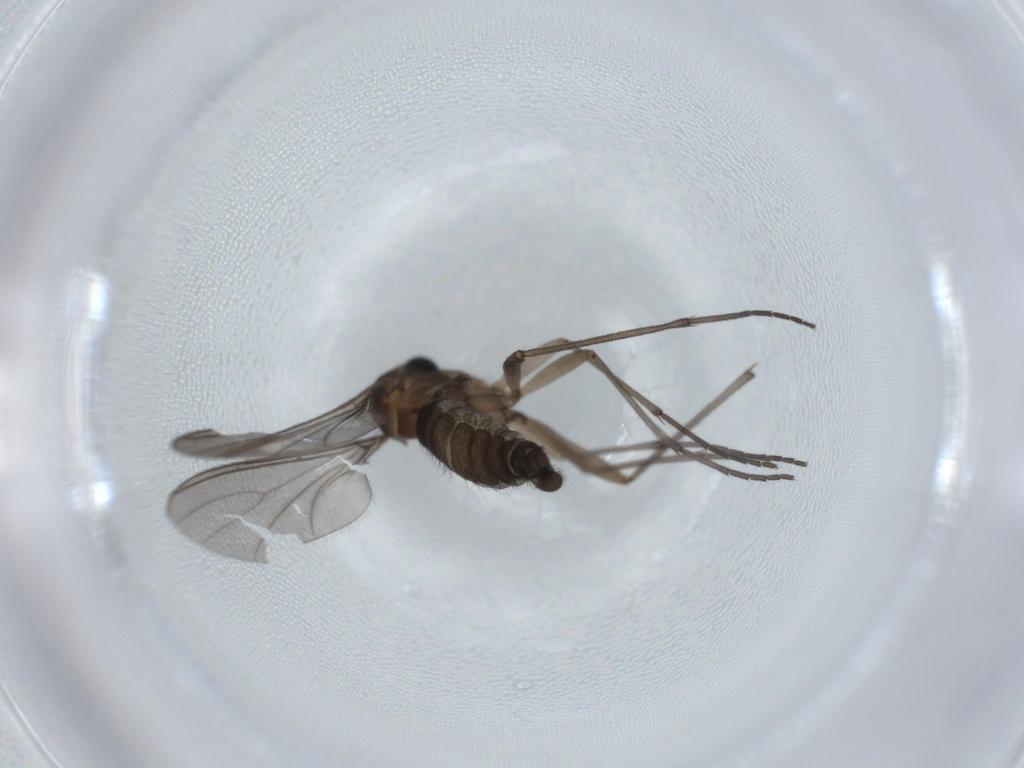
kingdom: Animalia
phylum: Arthropoda
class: Insecta
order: Diptera
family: Sciaridae
